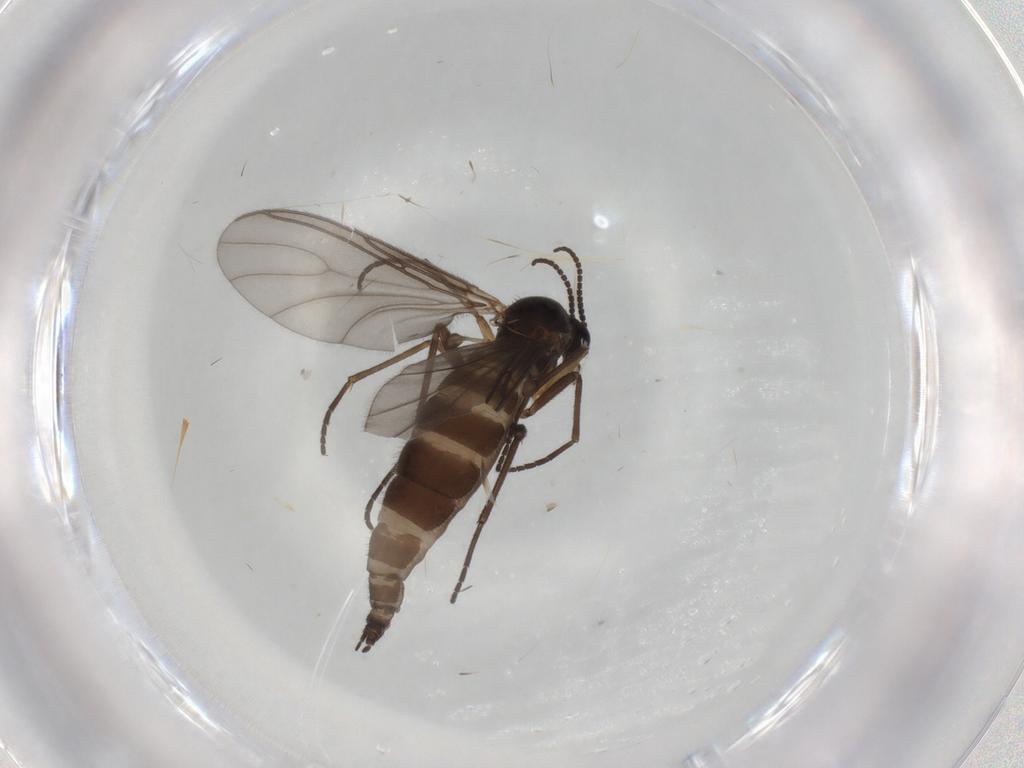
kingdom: Animalia
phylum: Arthropoda
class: Insecta
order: Diptera
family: Sciaridae
